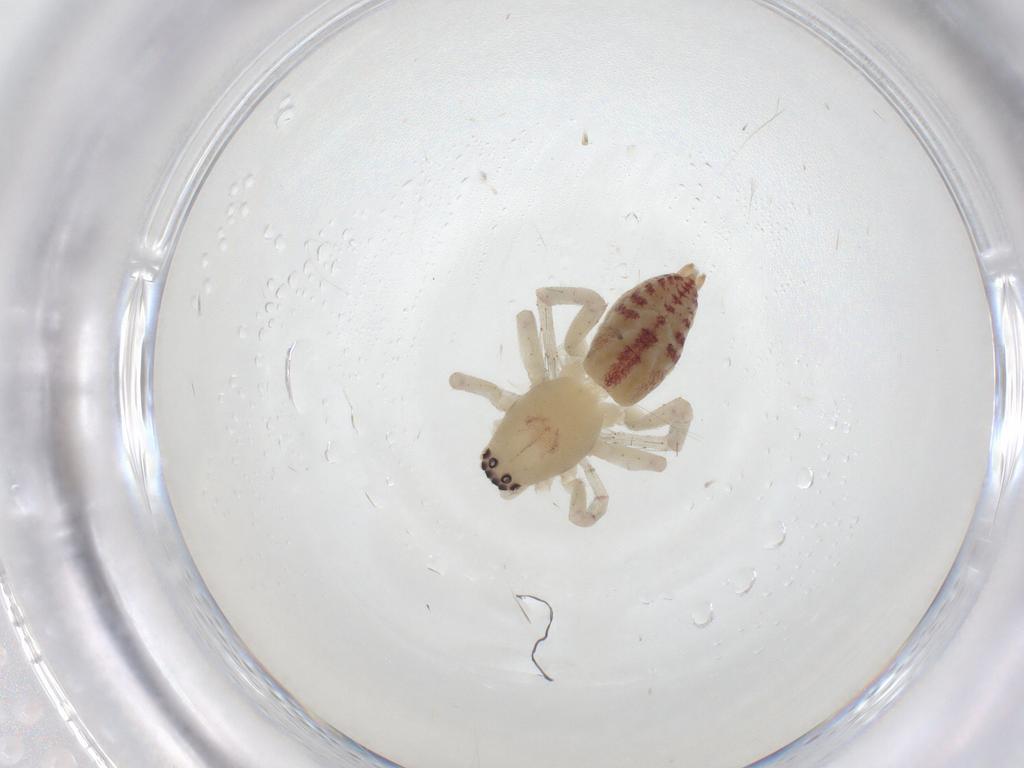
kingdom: Animalia
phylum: Arthropoda
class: Arachnida
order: Araneae
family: Clubionidae
